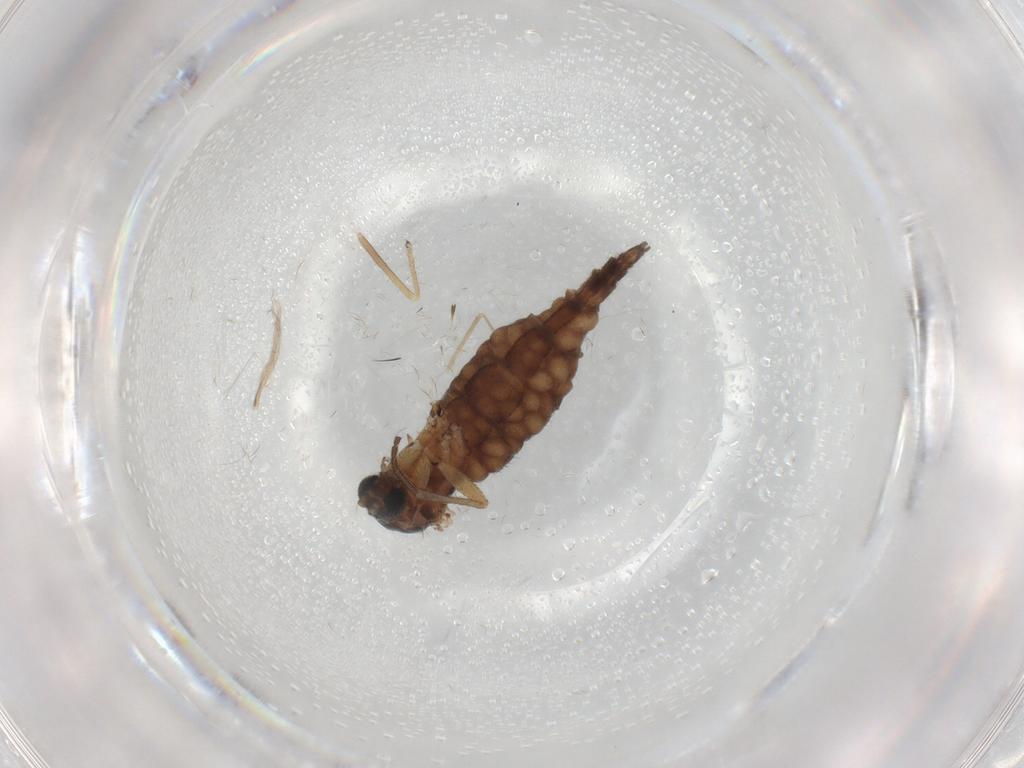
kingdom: Animalia
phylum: Arthropoda
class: Insecta
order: Diptera
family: Sciaridae
